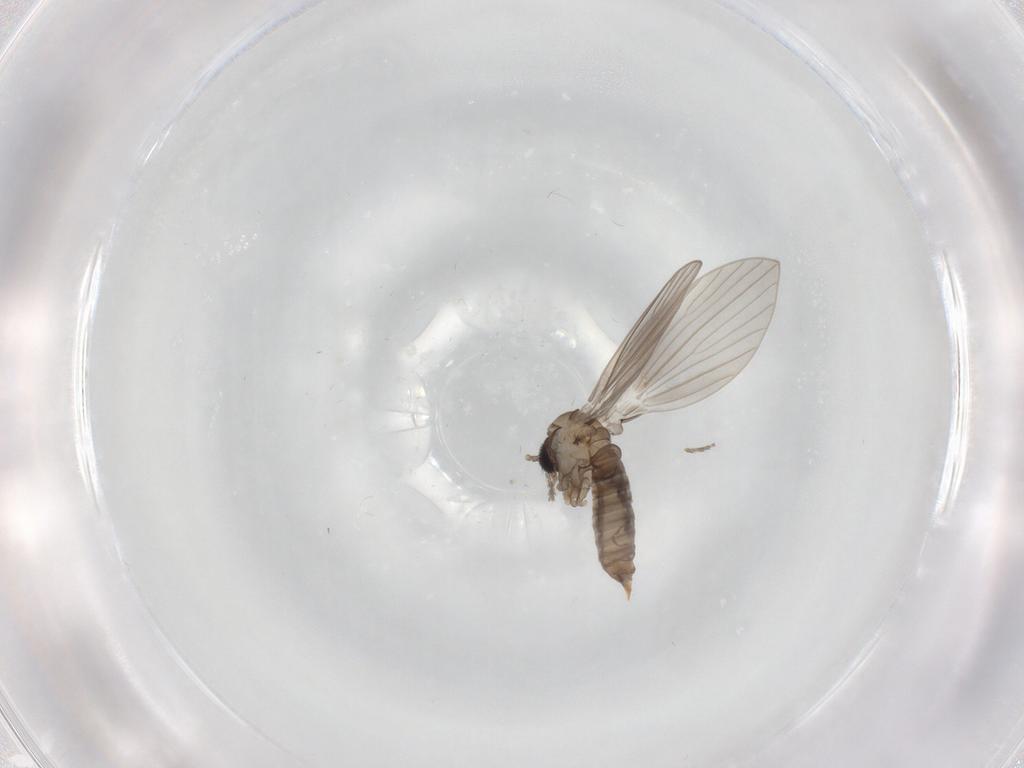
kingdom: Animalia
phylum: Arthropoda
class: Insecta
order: Diptera
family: Psychodidae
